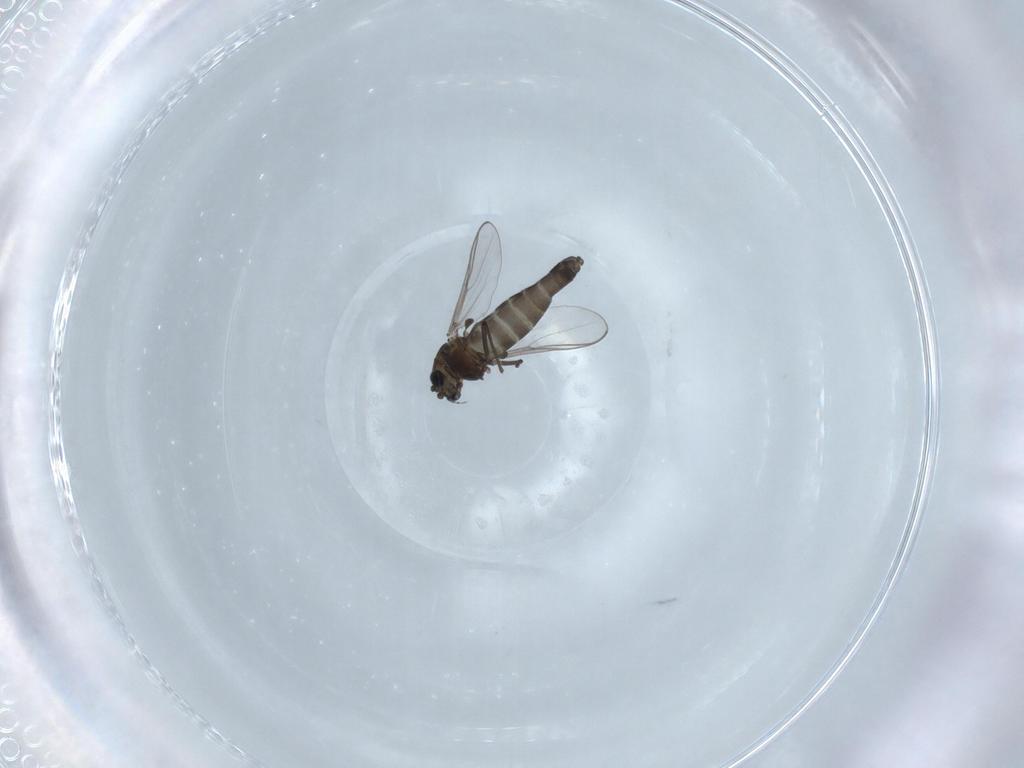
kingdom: Animalia
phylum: Arthropoda
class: Insecta
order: Diptera
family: Chironomidae
